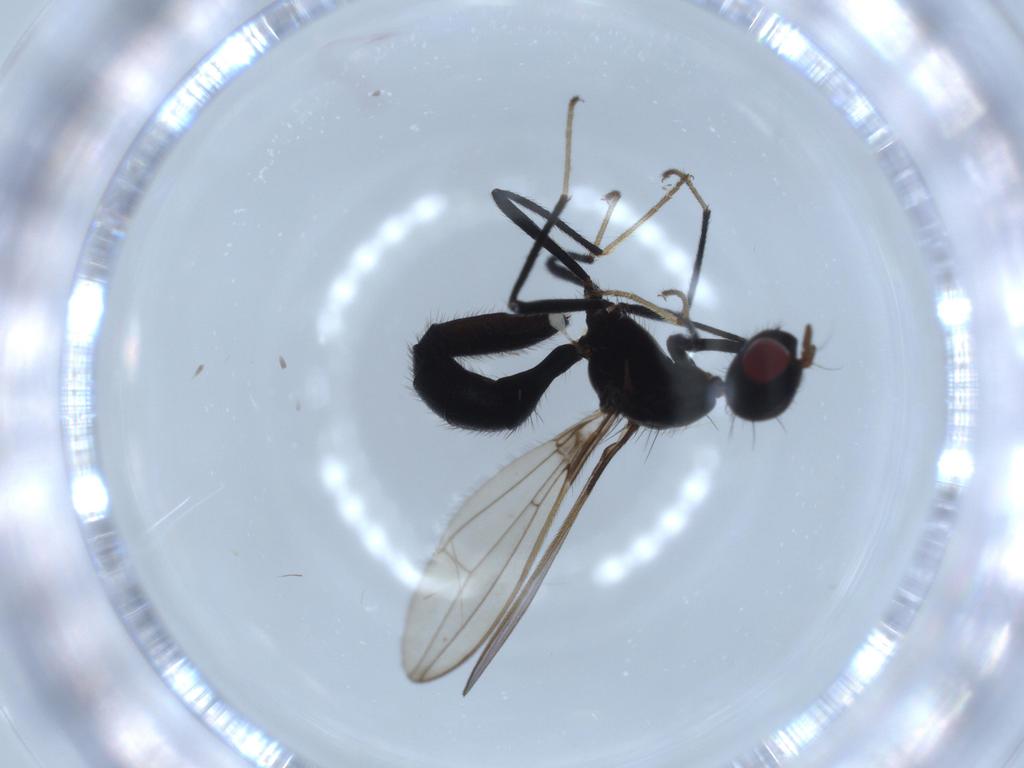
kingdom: Animalia
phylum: Arthropoda
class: Insecta
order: Diptera
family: Richardiidae
